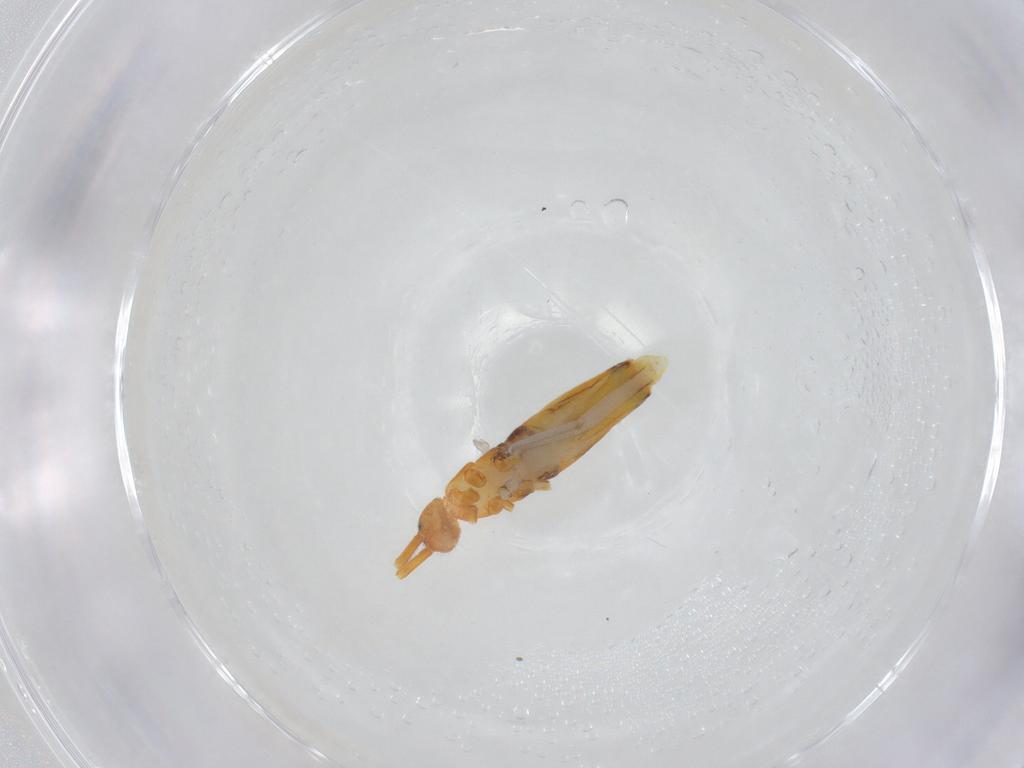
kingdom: Animalia
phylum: Arthropoda
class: Collembola
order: Entomobryomorpha
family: Entomobryidae
